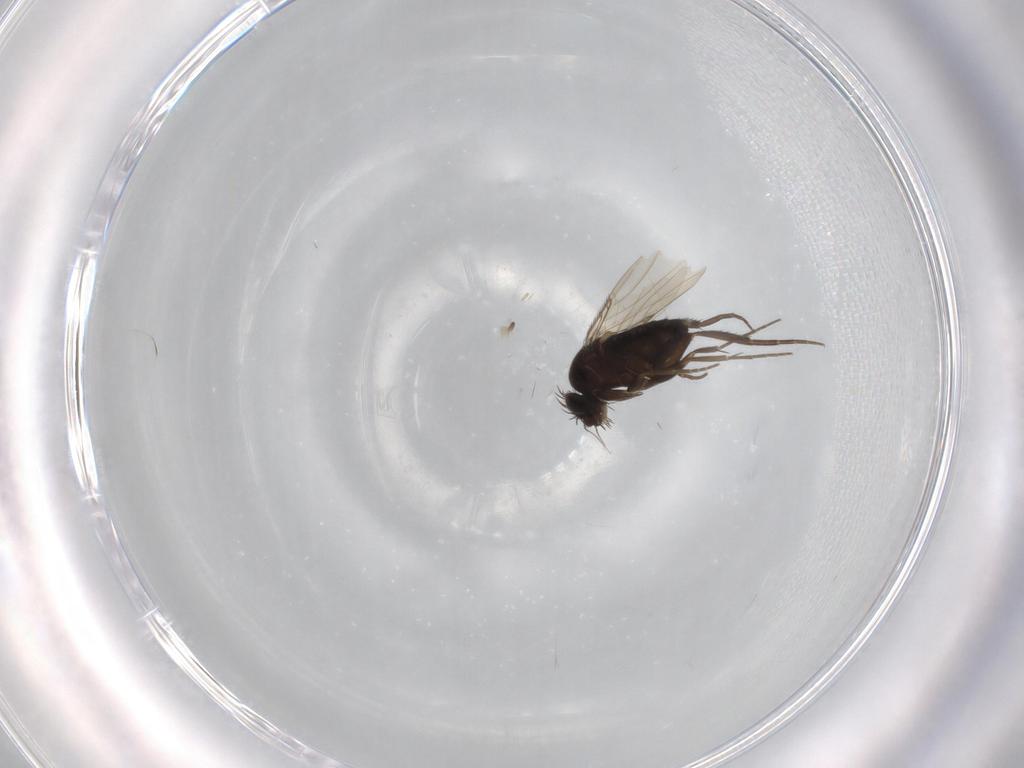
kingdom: Animalia
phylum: Arthropoda
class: Insecta
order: Diptera
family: Phoridae
